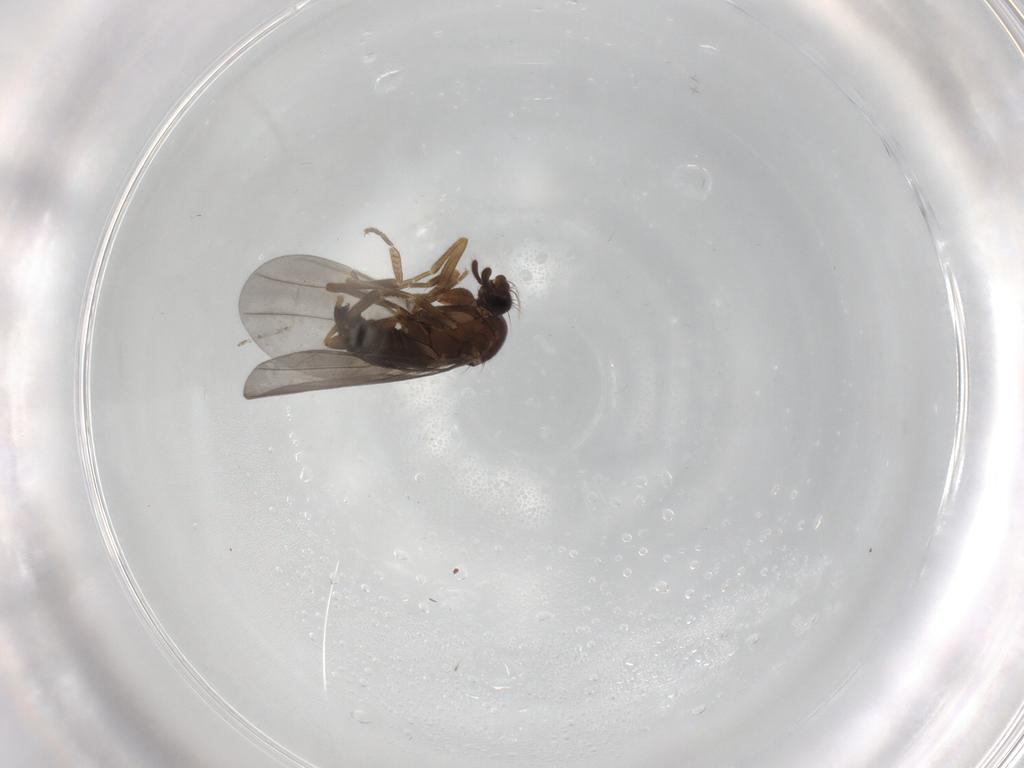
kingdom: Animalia
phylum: Arthropoda
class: Insecta
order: Diptera
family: Phoridae
